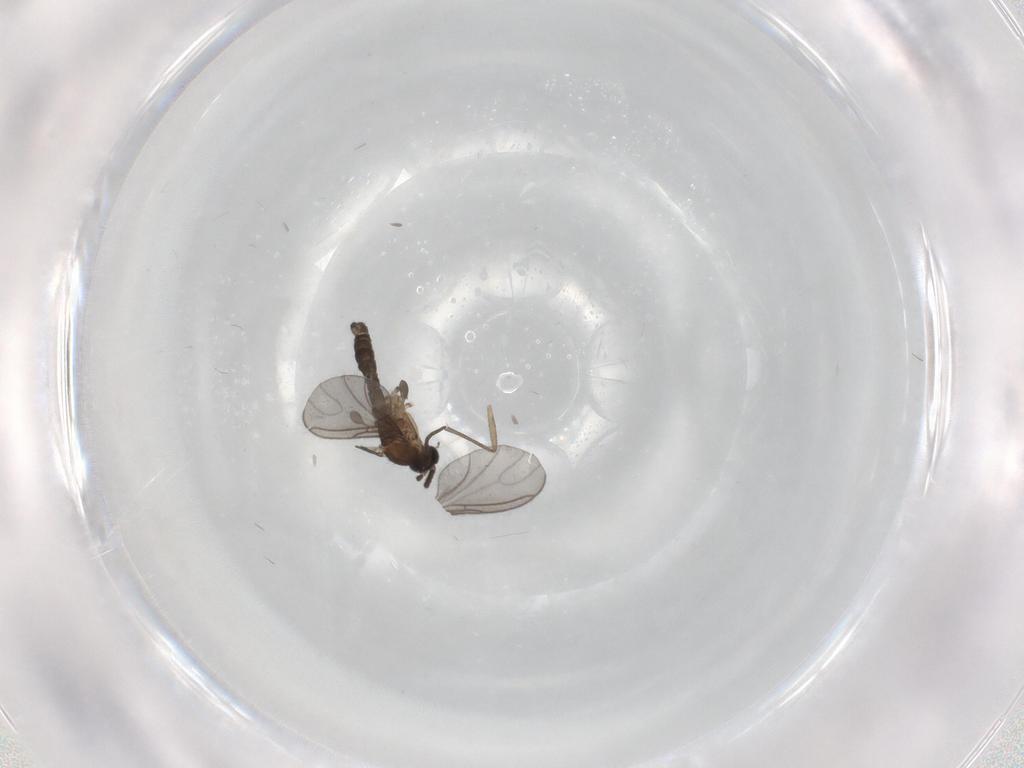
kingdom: Animalia
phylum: Arthropoda
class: Insecta
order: Diptera
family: Sciaridae
